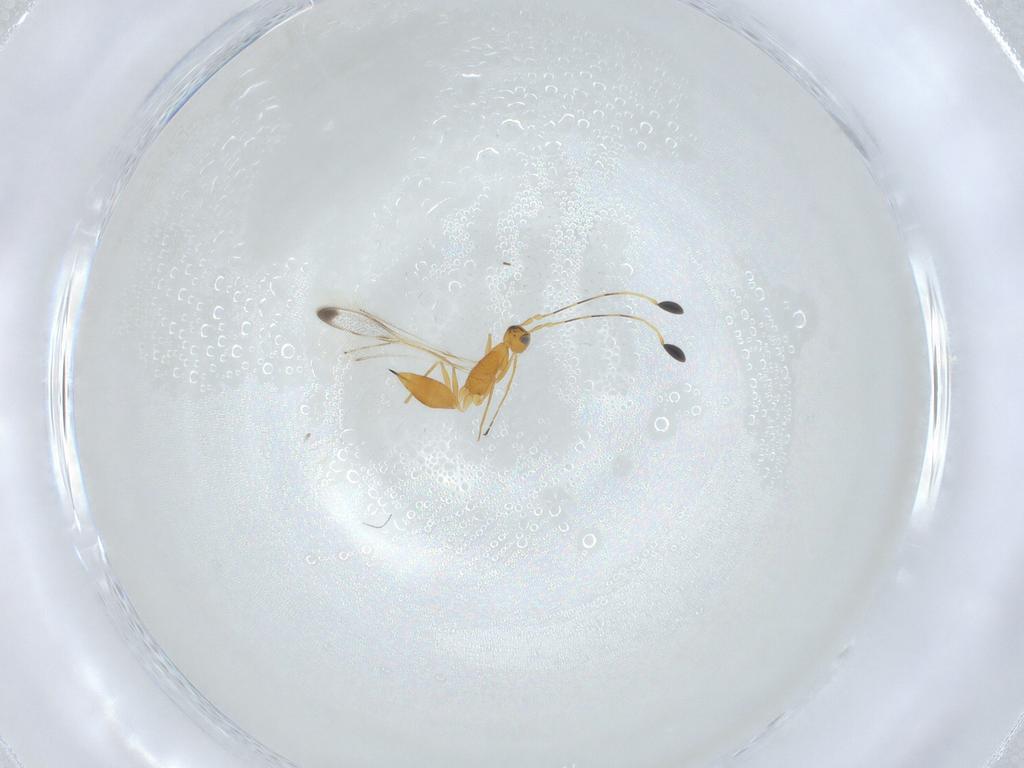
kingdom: Animalia
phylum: Arthropoda
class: Insecta
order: Hymenoptera
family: Mymaridae
